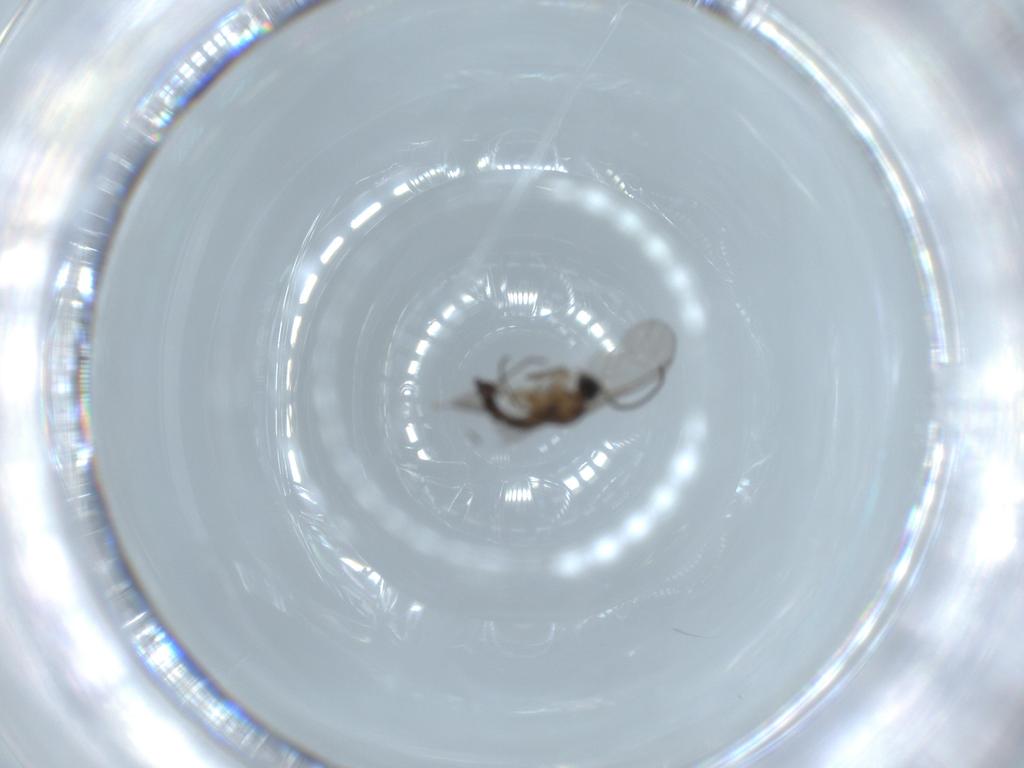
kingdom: Animalia
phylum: Arthropoda
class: Insecta
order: Diptera
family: Sciaridae
